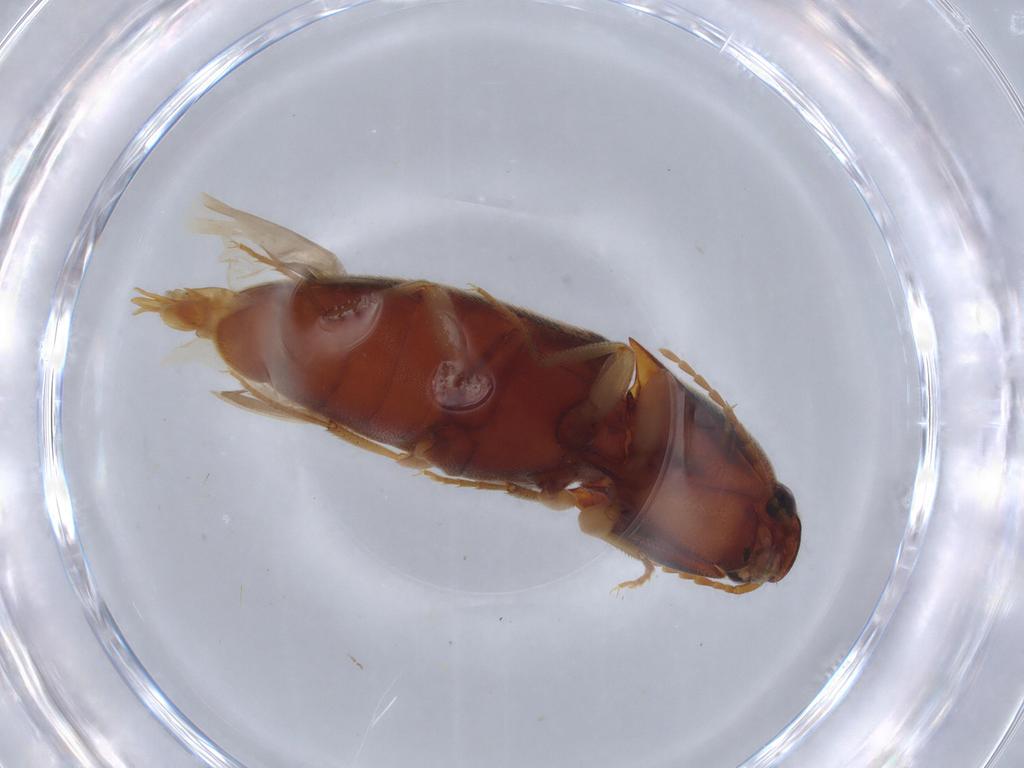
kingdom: Animalia
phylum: Arthropoda
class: Insecta
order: Coleoptera
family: Elateridae
